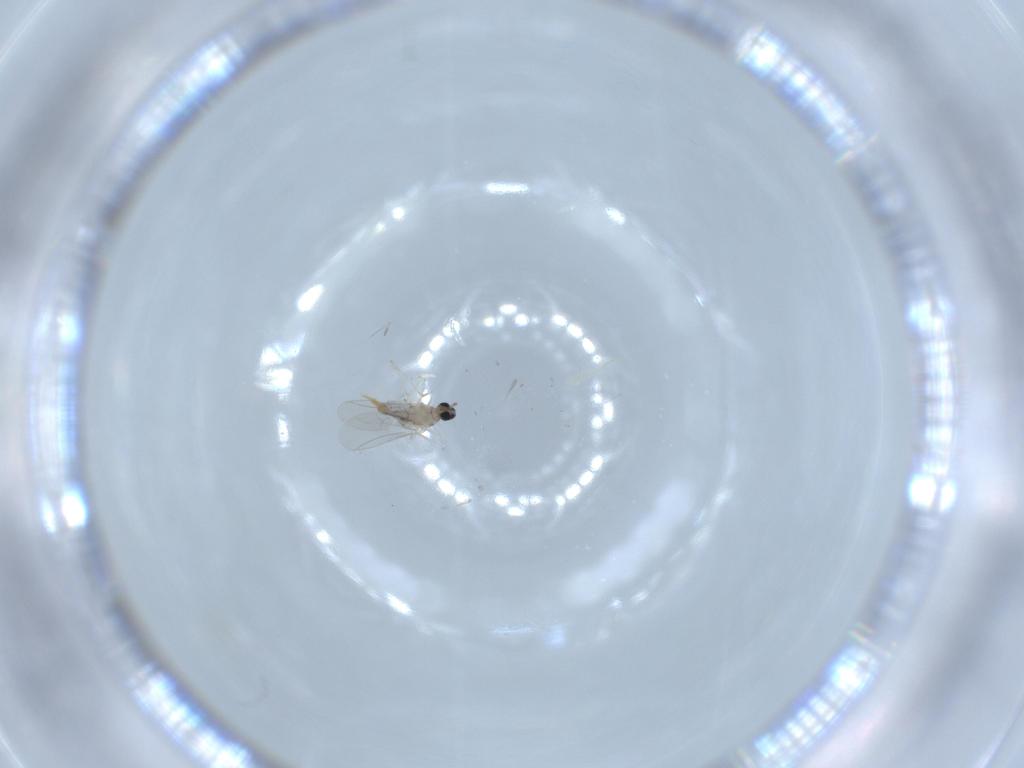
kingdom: Animalia
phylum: Arthropoda
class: Insecta
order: Diptera
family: Cecidomyiidae
